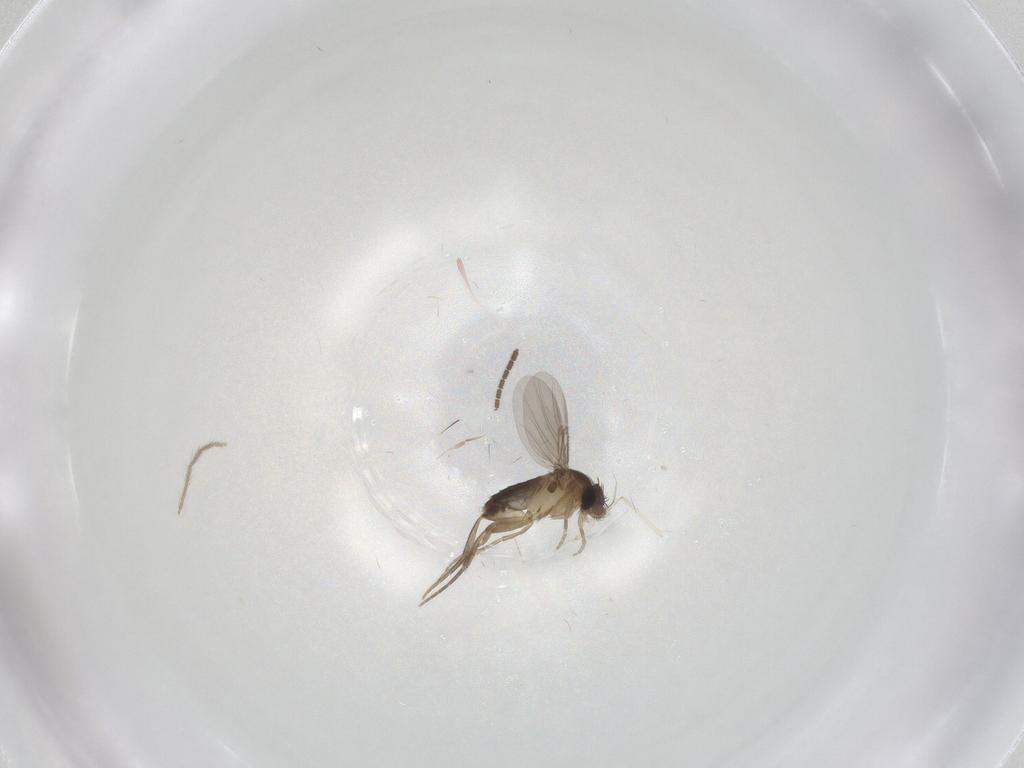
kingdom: Animalia
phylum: Arthropoda
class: Insecta
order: Diptera
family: Phoridae
